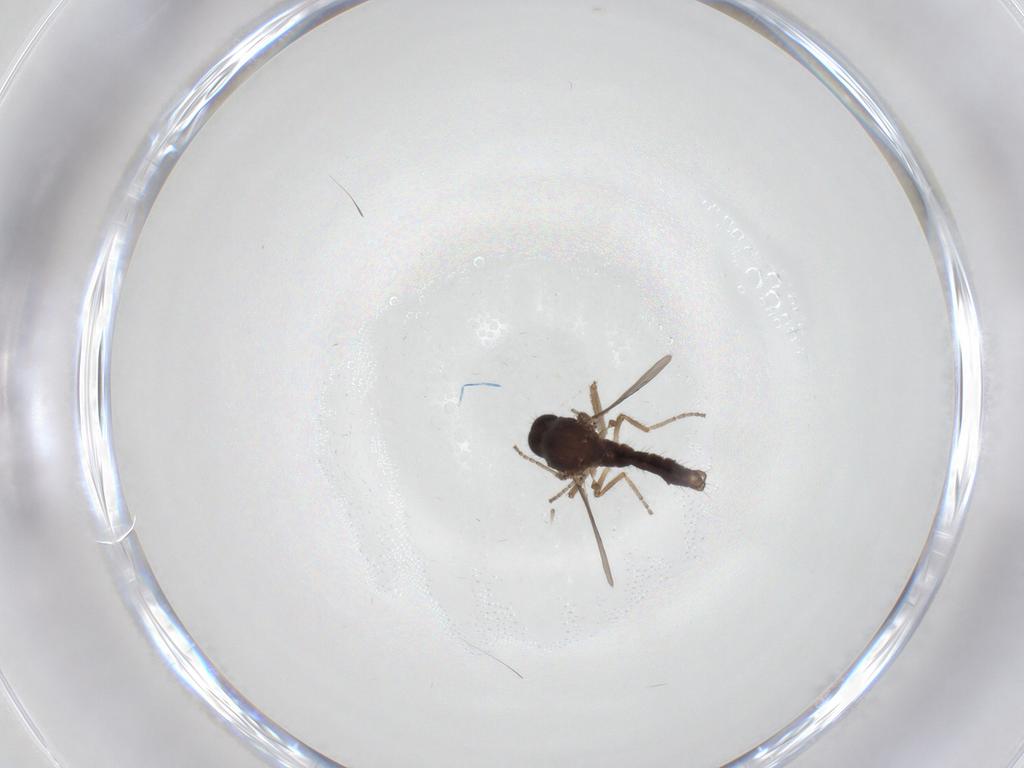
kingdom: Animalia
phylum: Arthropoda
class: Insecta
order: Diptera
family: Ceratopogonidae
